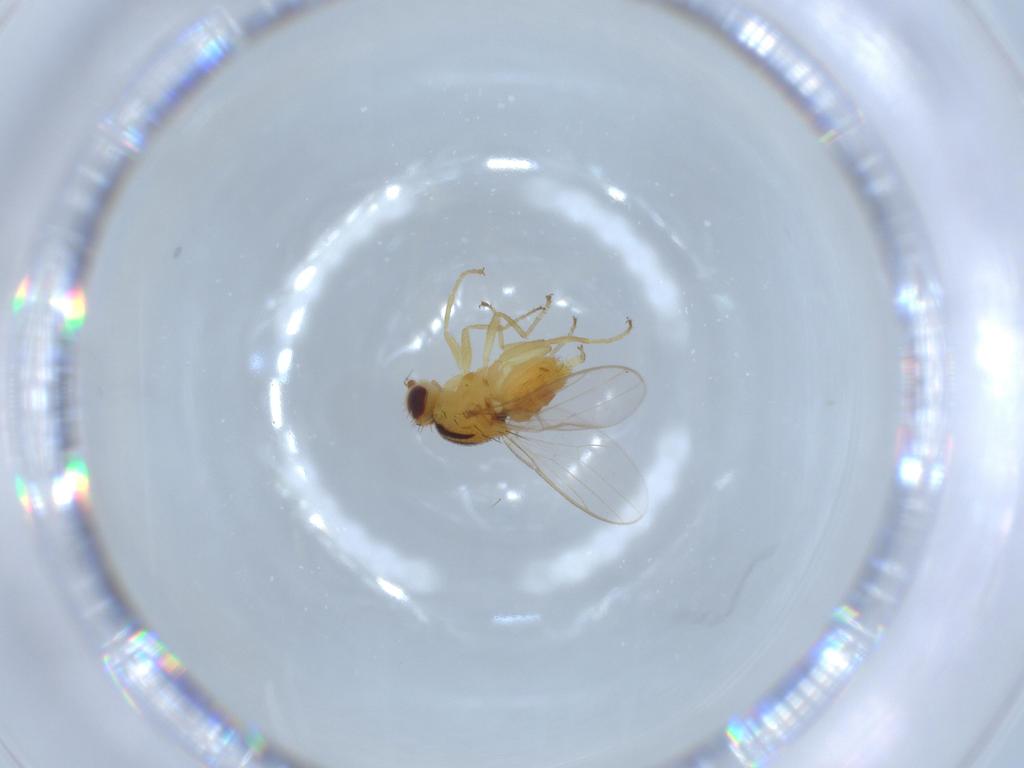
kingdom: Animalia
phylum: Arthropoda
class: Insecta
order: Diptera
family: Chloropidae
